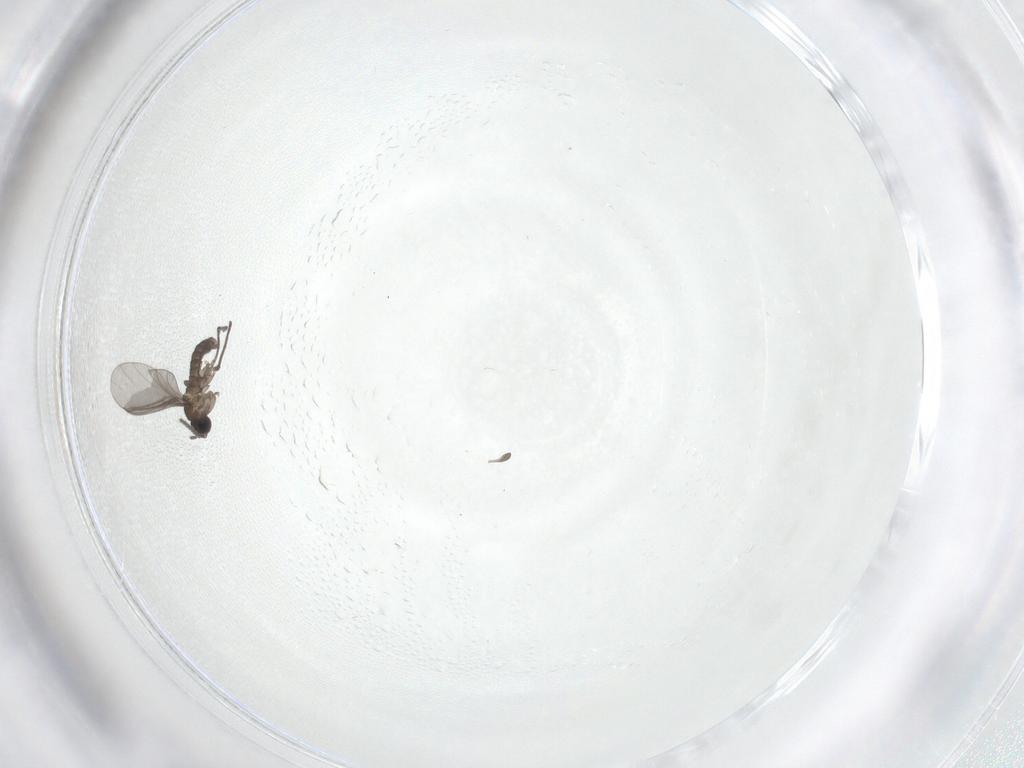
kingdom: Animalia
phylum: Arthropoda
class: Insecta
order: Diptera
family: Sciaridae
